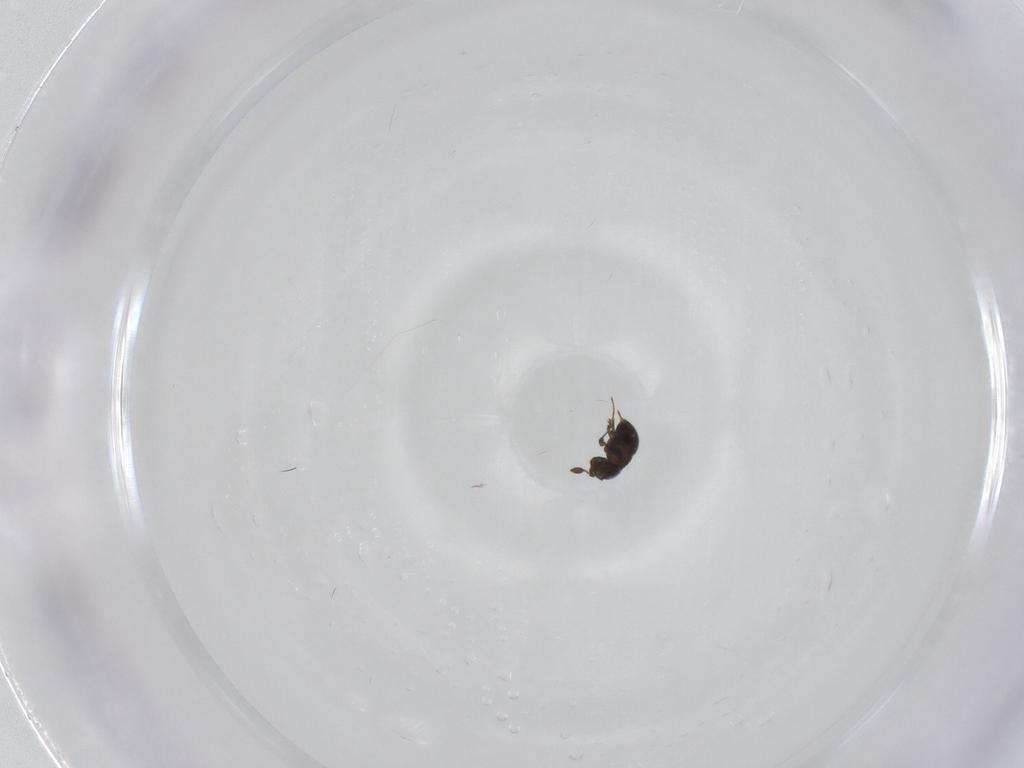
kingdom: Animalia
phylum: Arthropoda
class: Insecta
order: Hymenoptera
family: Scelionidae
